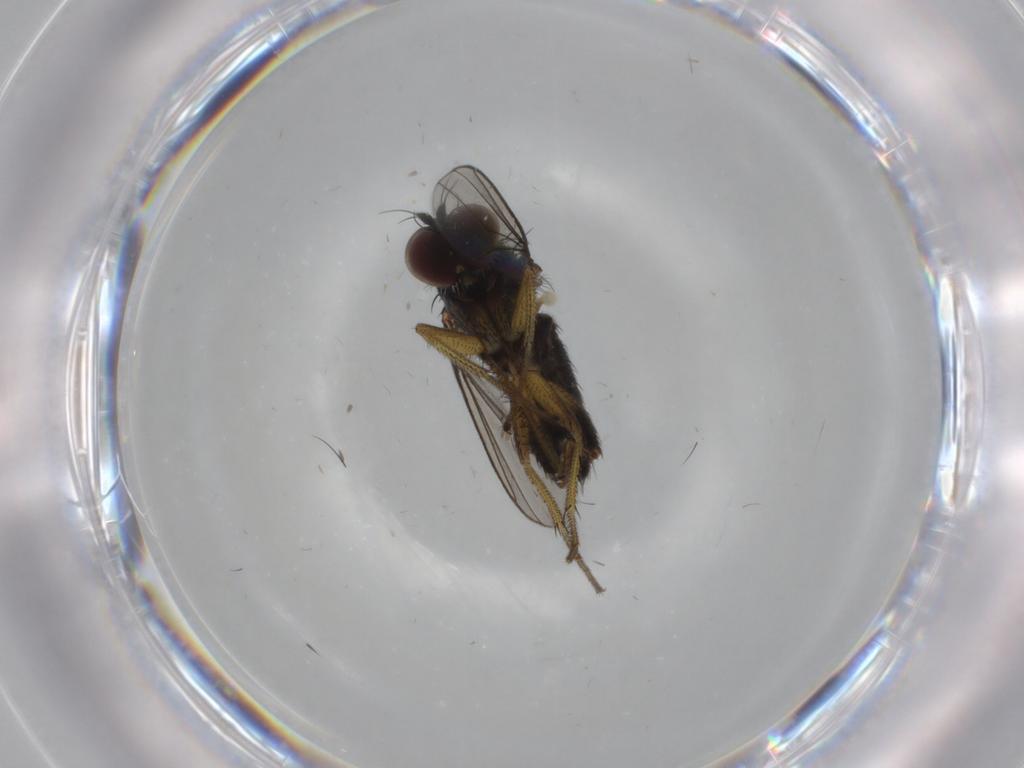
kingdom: Animalia
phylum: Arthropoda
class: Insecta
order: Diptera
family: Dolichopodidae
